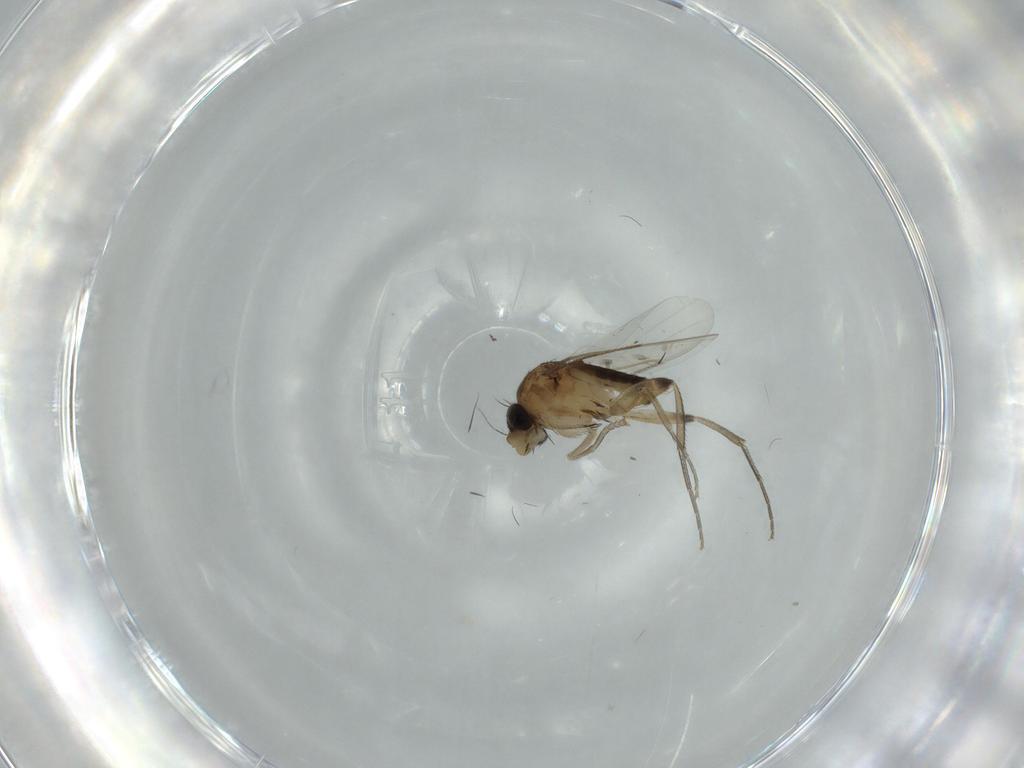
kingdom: Animalia
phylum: Arthropoda
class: Insecta
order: Diptera
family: Phoridae
